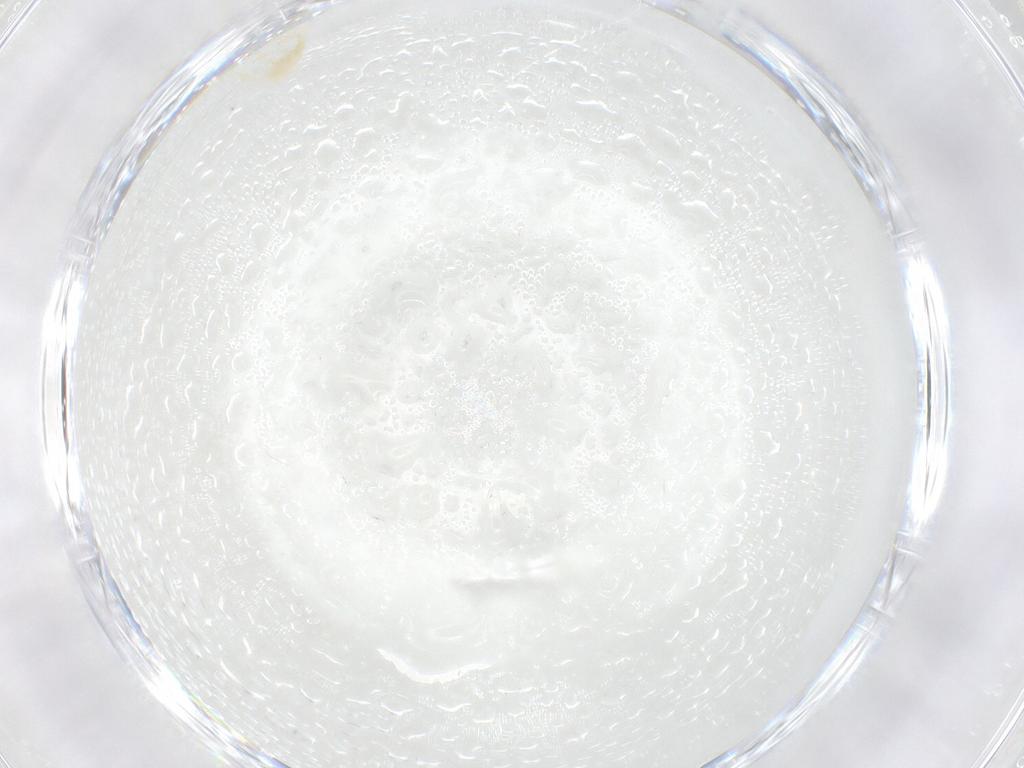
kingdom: Animalia
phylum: Arthropoda
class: Arachnida
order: Trombidiformes
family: Erythraeidae
